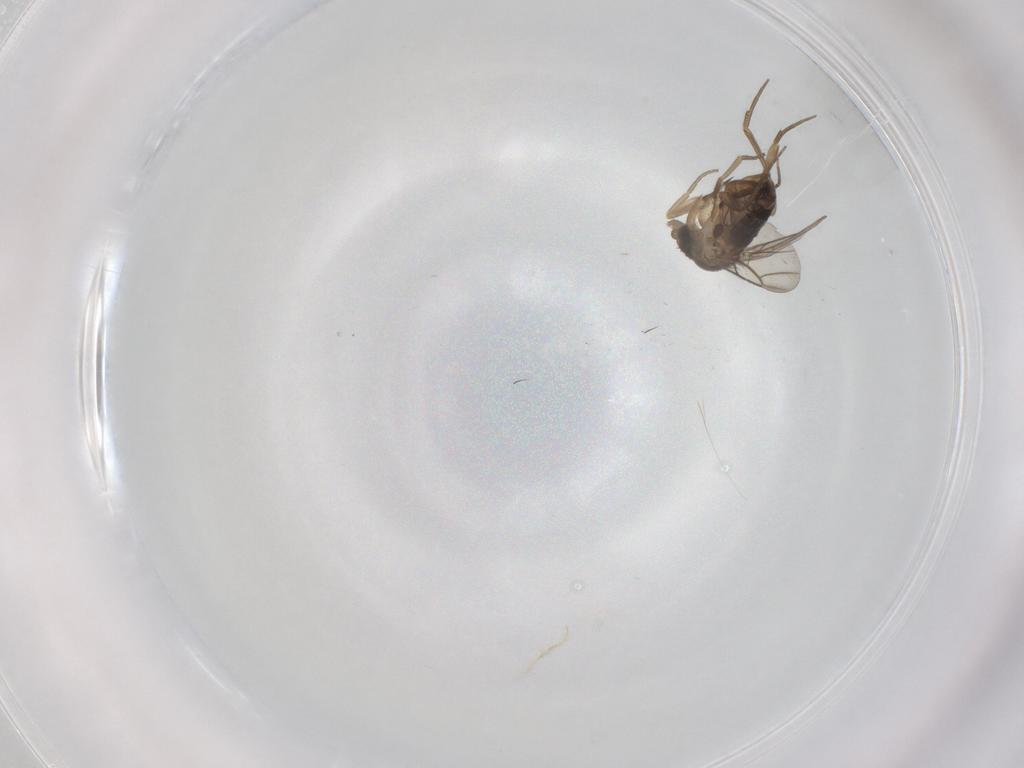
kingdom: Animalia
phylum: Arthropoda
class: Insecta
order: Diptera
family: Phoridae
